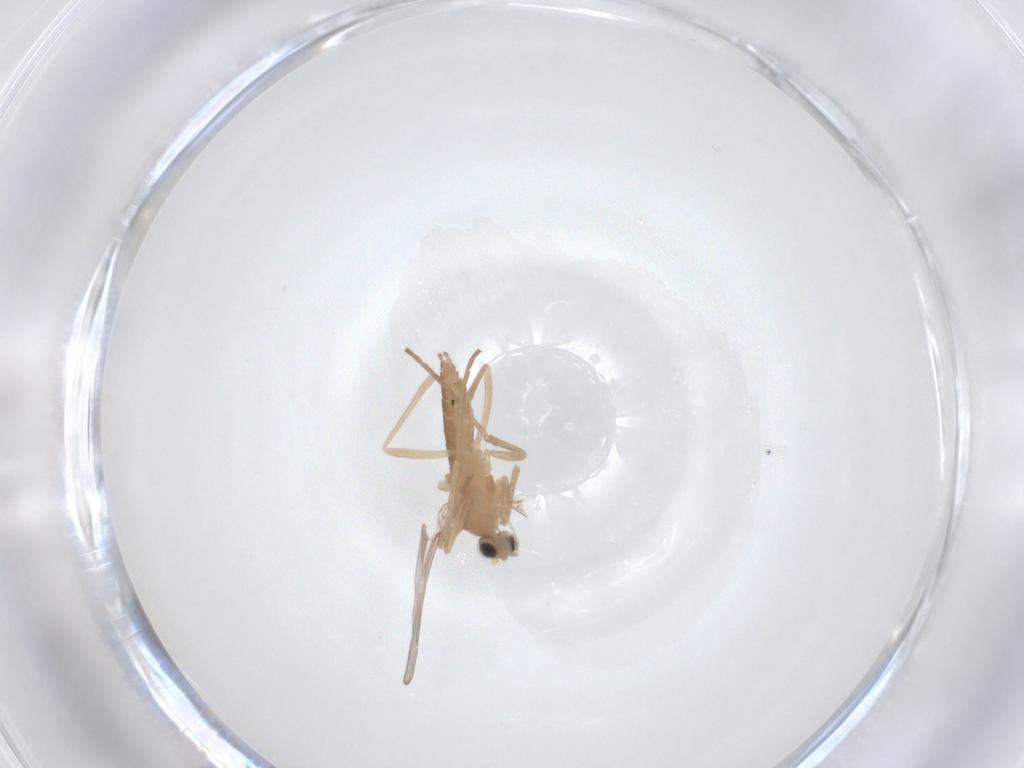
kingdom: Animalia
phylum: Arthropoda
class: Insecta
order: Diptera
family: Cecidomyiidae
